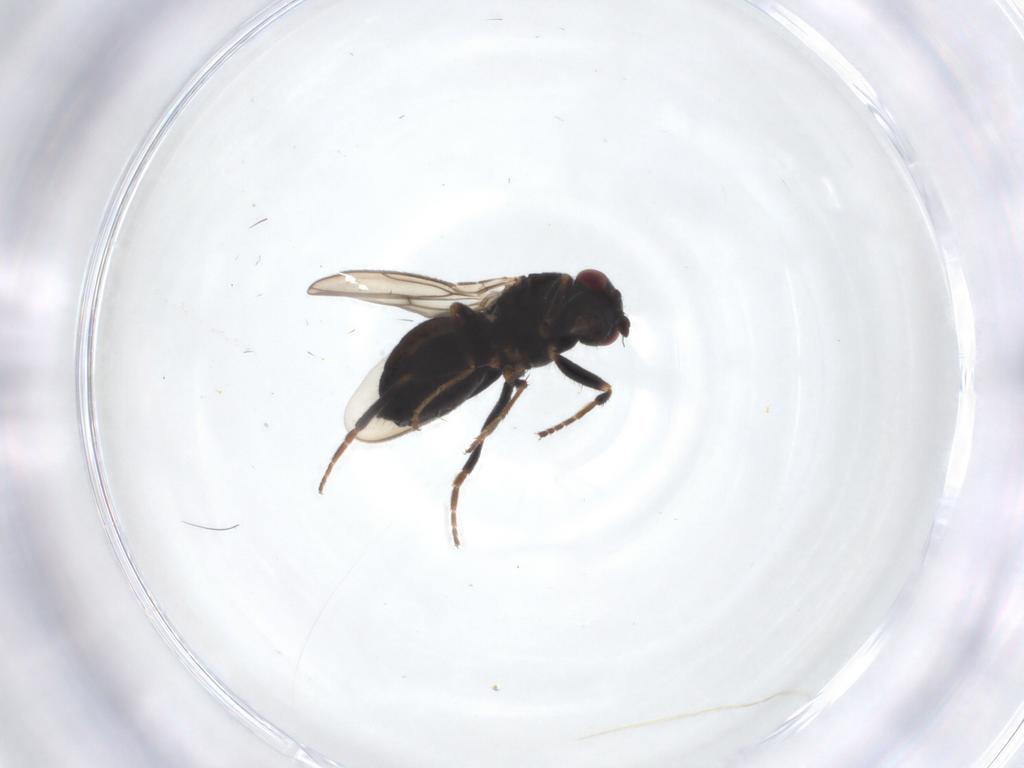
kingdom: Animalia
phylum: Arthropoda
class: Insecta
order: Diptera
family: Sphaeroceridae
